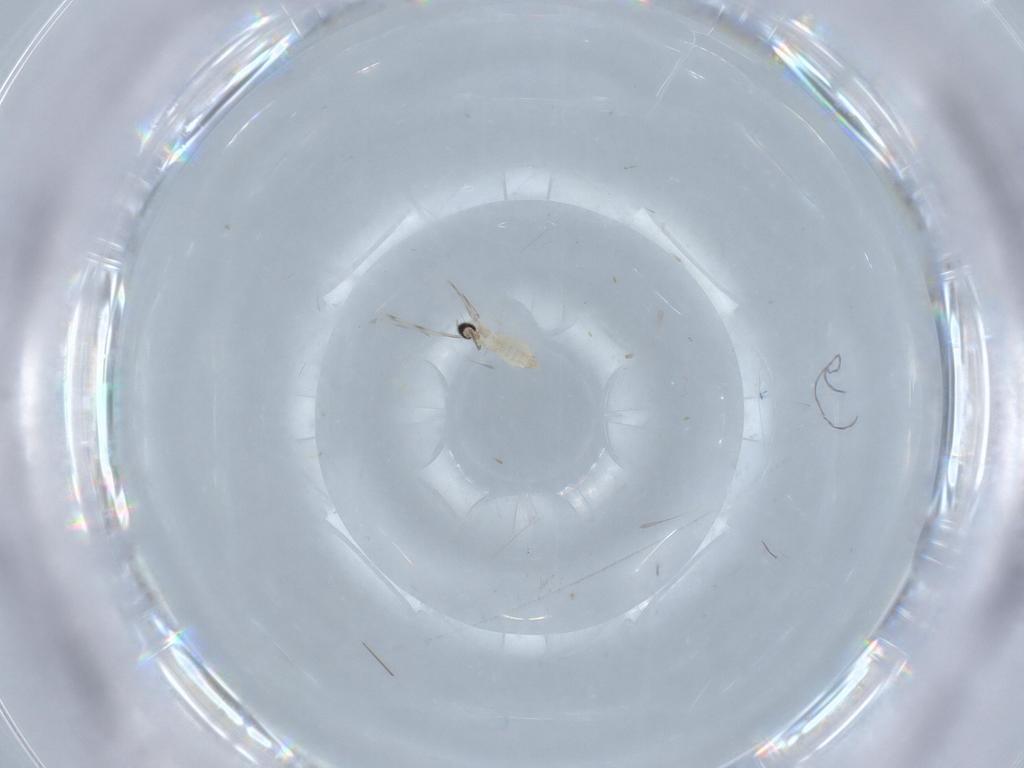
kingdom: Animalia
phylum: Arthropoda
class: Insecta
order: Diptera
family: Cecidomyiidae
